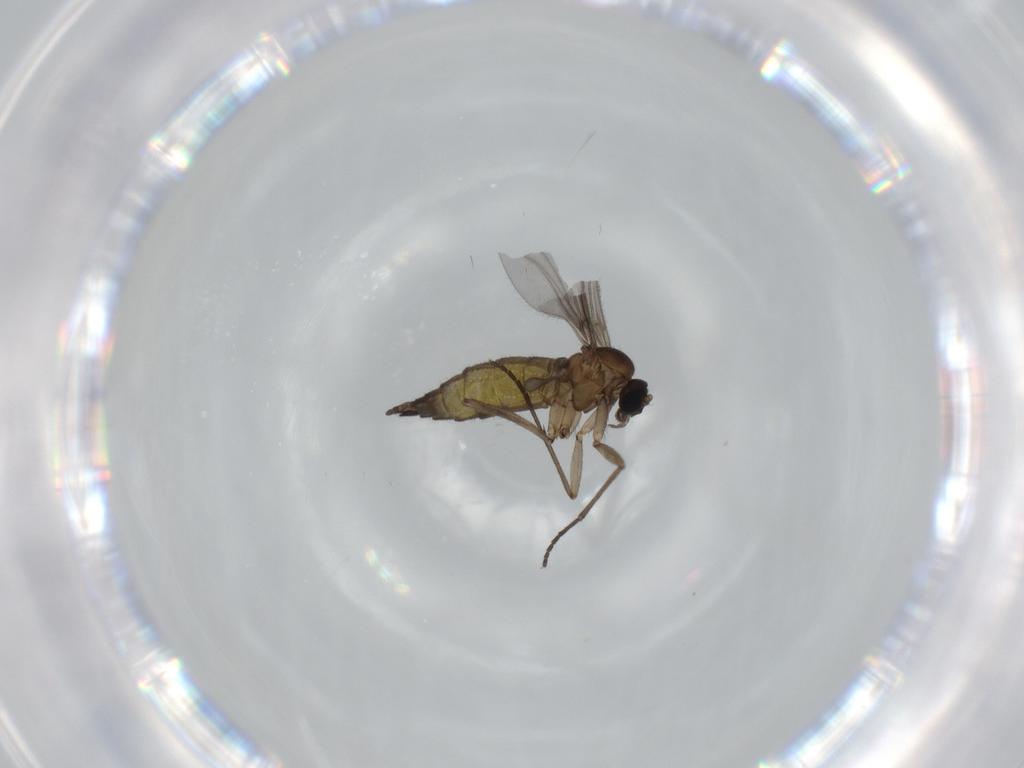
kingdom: Animalia
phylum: Arthropoda
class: Insecta
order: Diptera
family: Sciaridae
